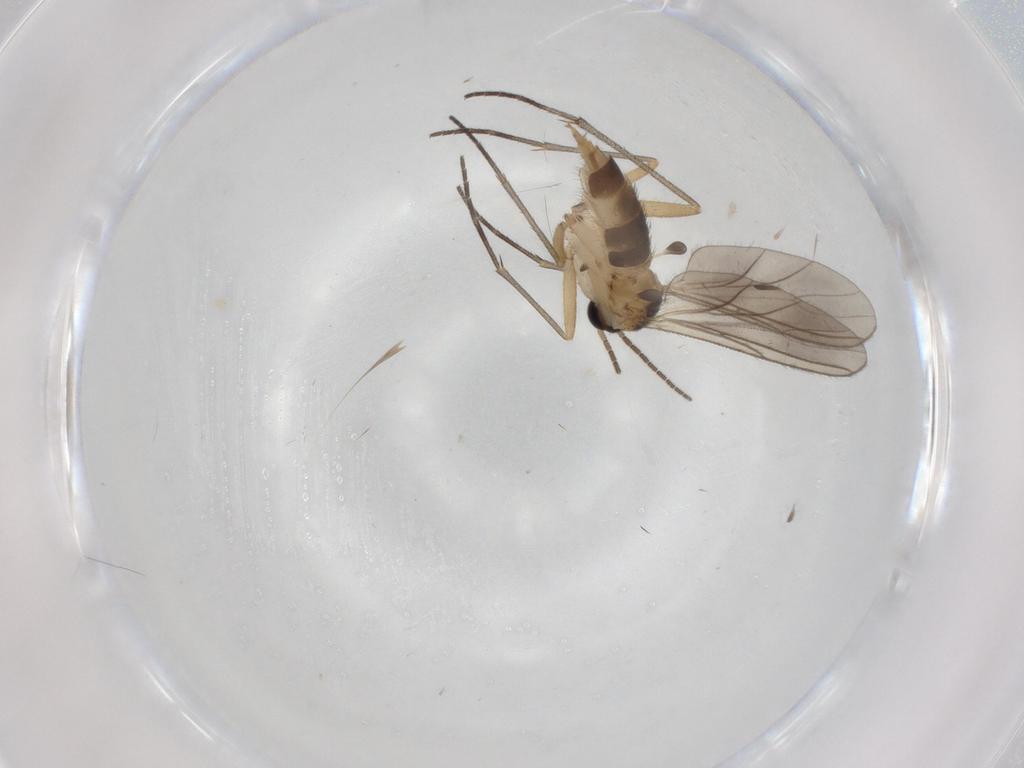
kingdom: Animalia
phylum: Arthropoda
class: Insecta
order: Diptera
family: Sciaridae
